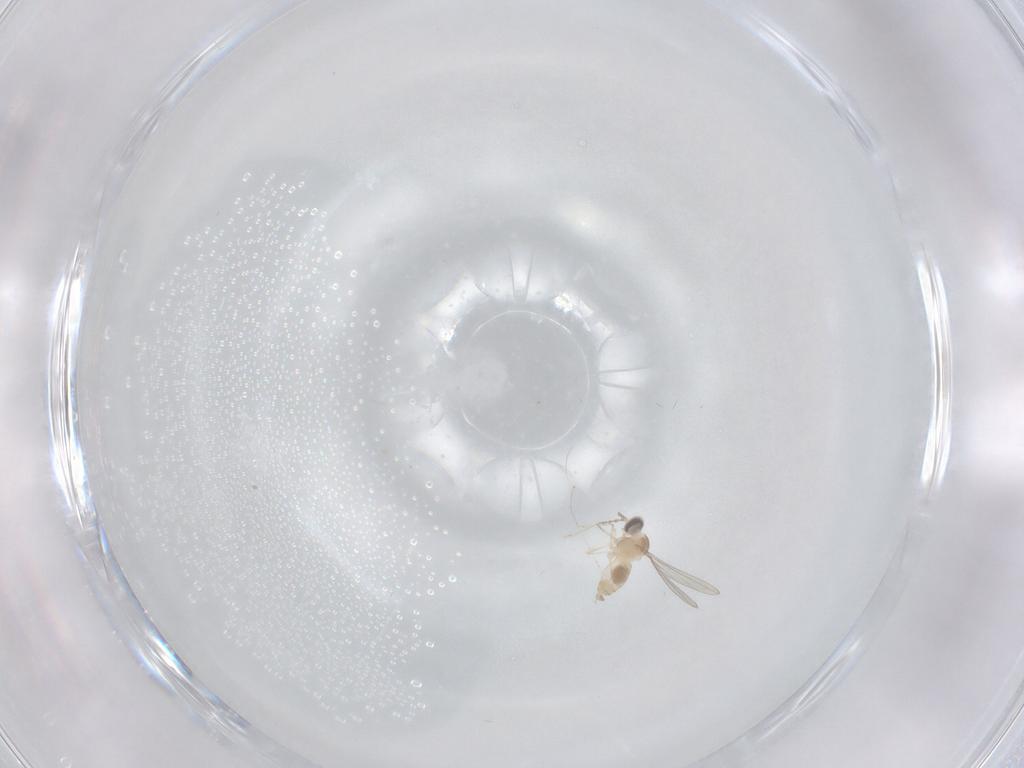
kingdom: Animalia
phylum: Arthropoda
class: Insecta
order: Diptera
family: Cecidomyiidae
